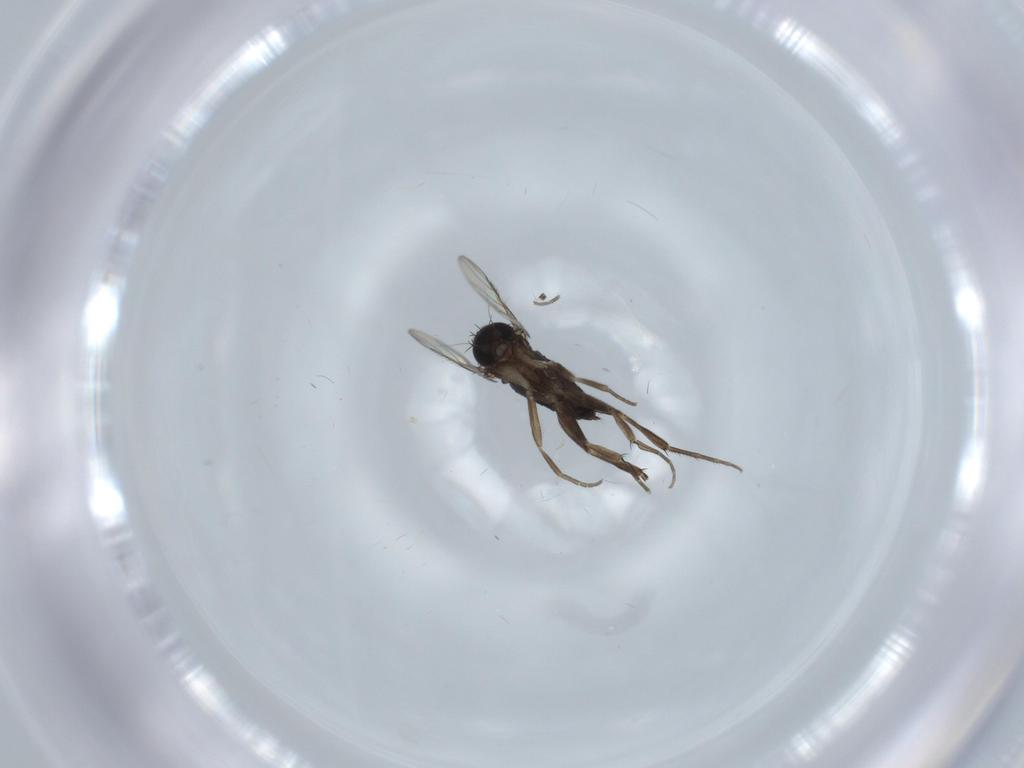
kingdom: Animalia
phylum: Arthropoda
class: Insecta
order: Diptera
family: Phoridae
